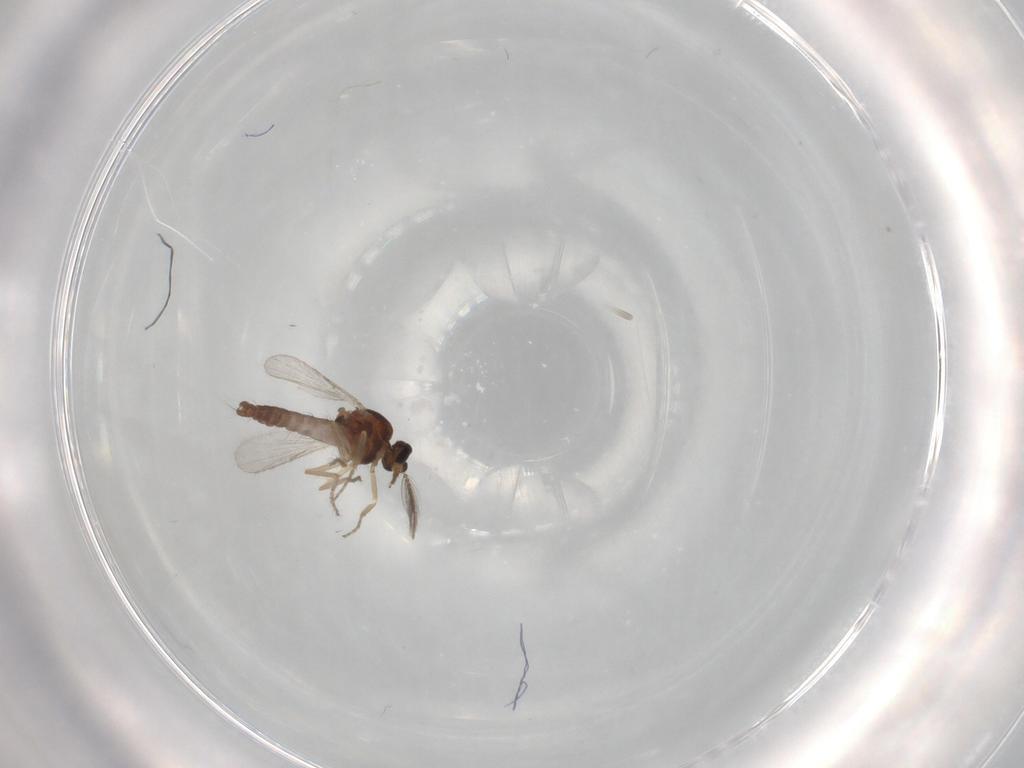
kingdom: Animalia
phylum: Arthropoda
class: Insecta
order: Diptera
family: Ceratopogonidae
